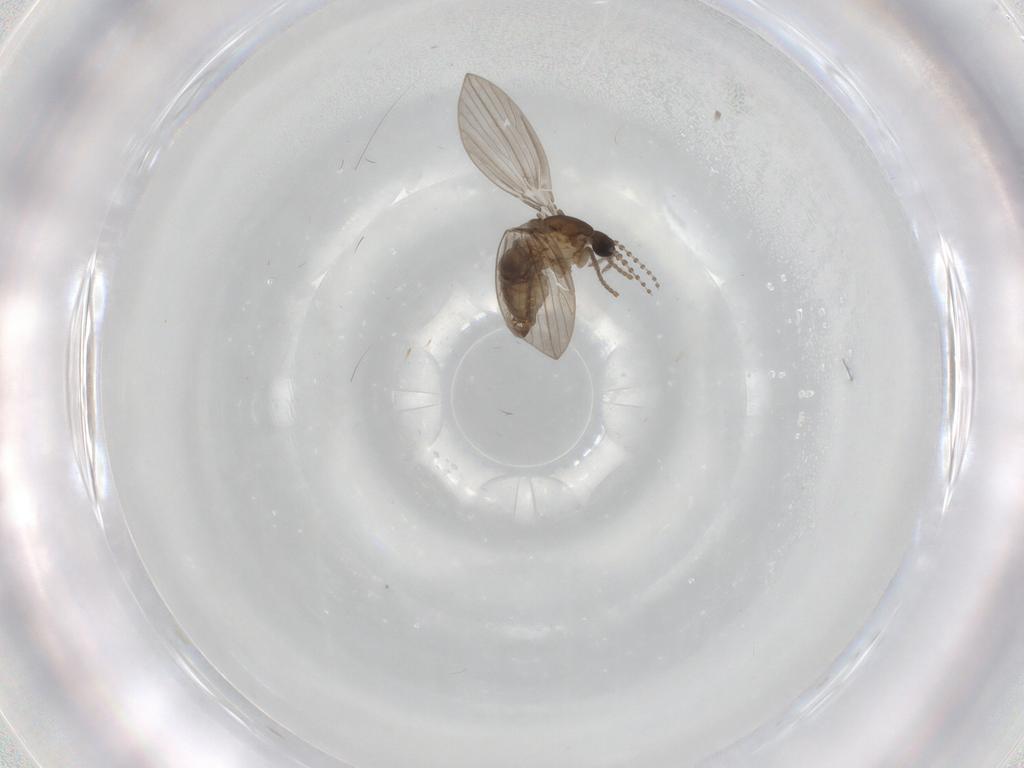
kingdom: Animalia
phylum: Arthropoda
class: Insecta
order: Diptera
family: Psychodidae
